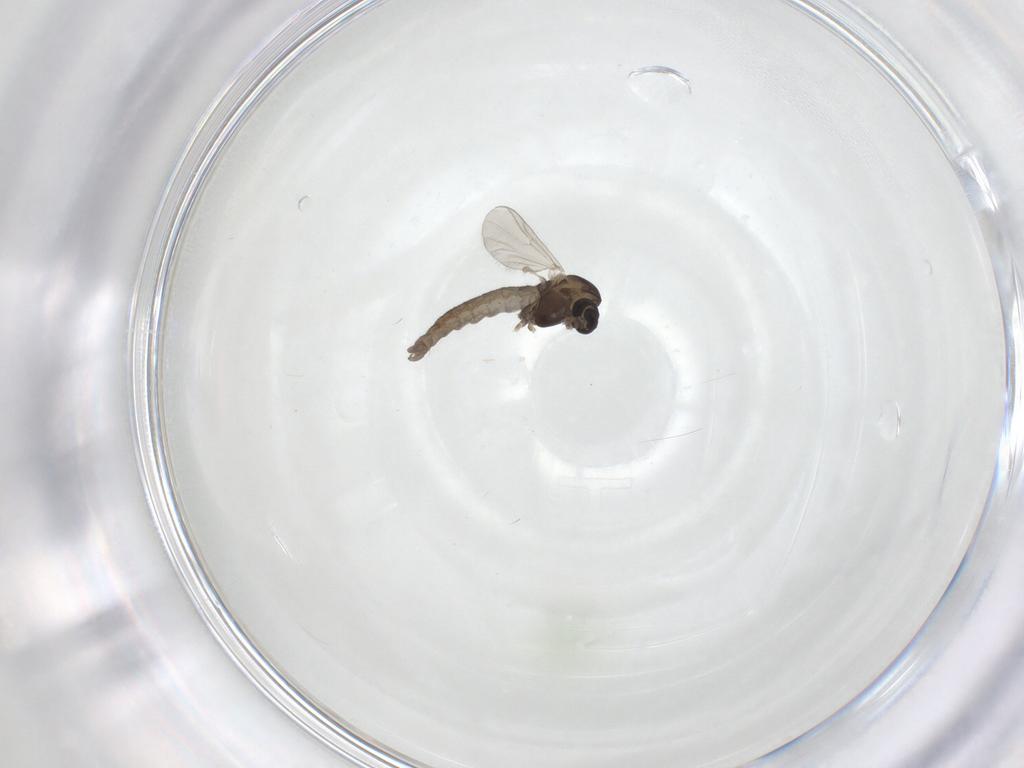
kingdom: Animalia
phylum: Arthropoda
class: Insecta
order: Diptera
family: Chironomidae
